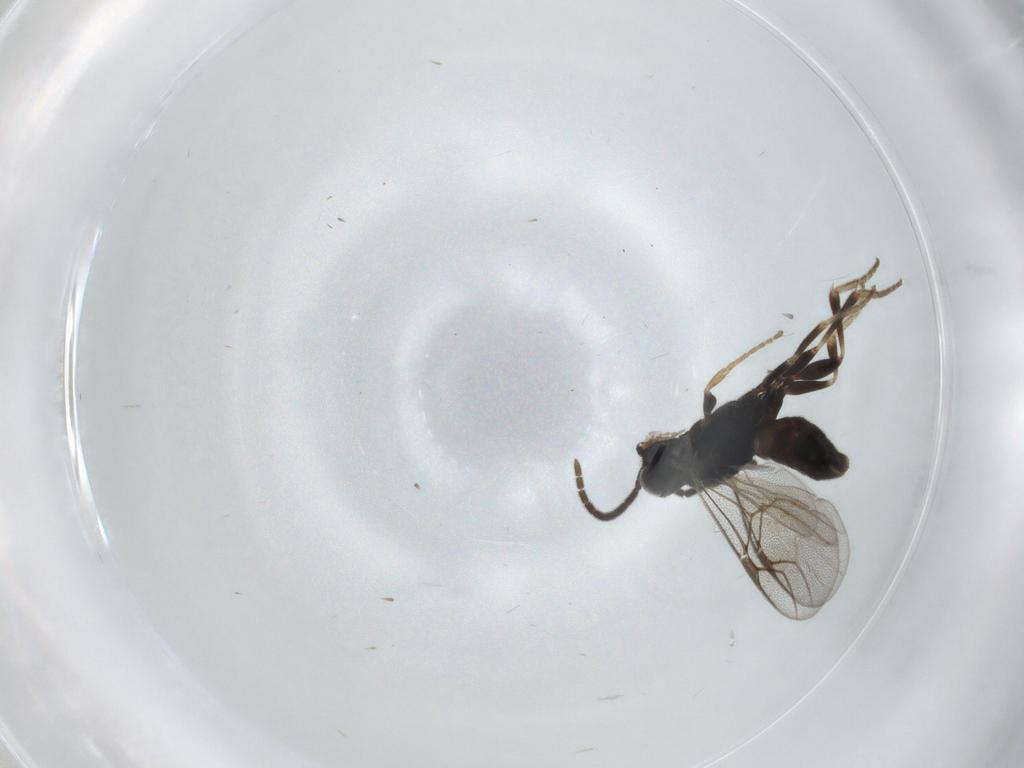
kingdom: Animalia
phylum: Arthropoda
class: Insecta
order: Hymenoptera
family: Dryinidae
